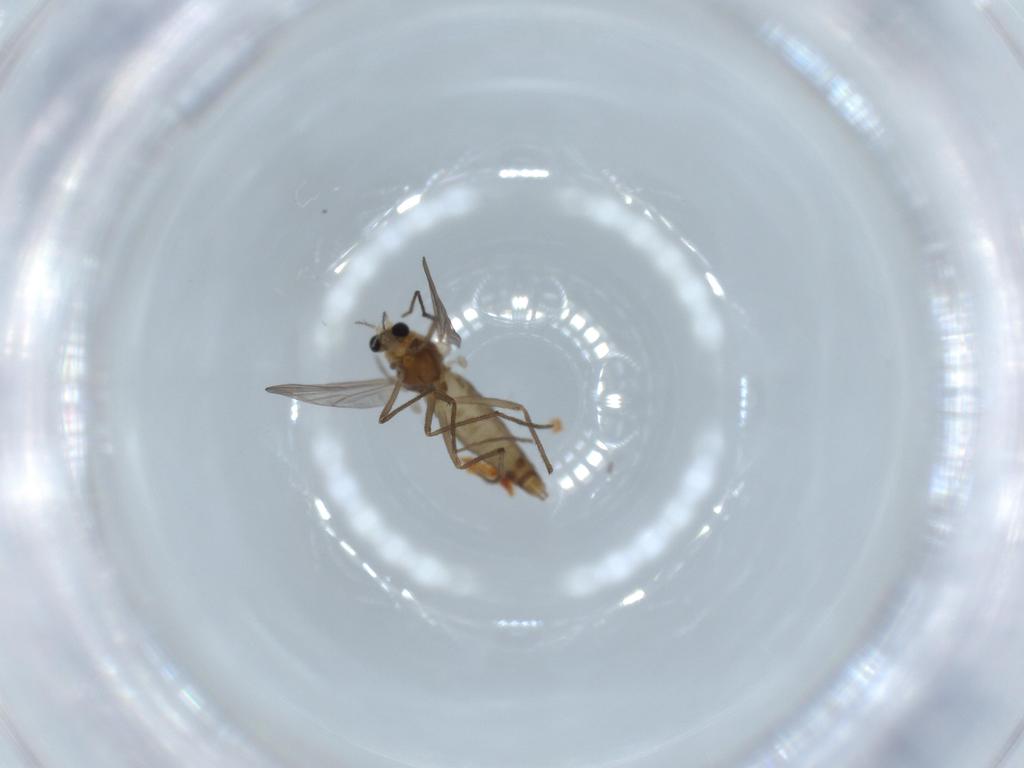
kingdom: Animalia
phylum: Arthropoda
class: Insecta
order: Diptera
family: Chironomidae
